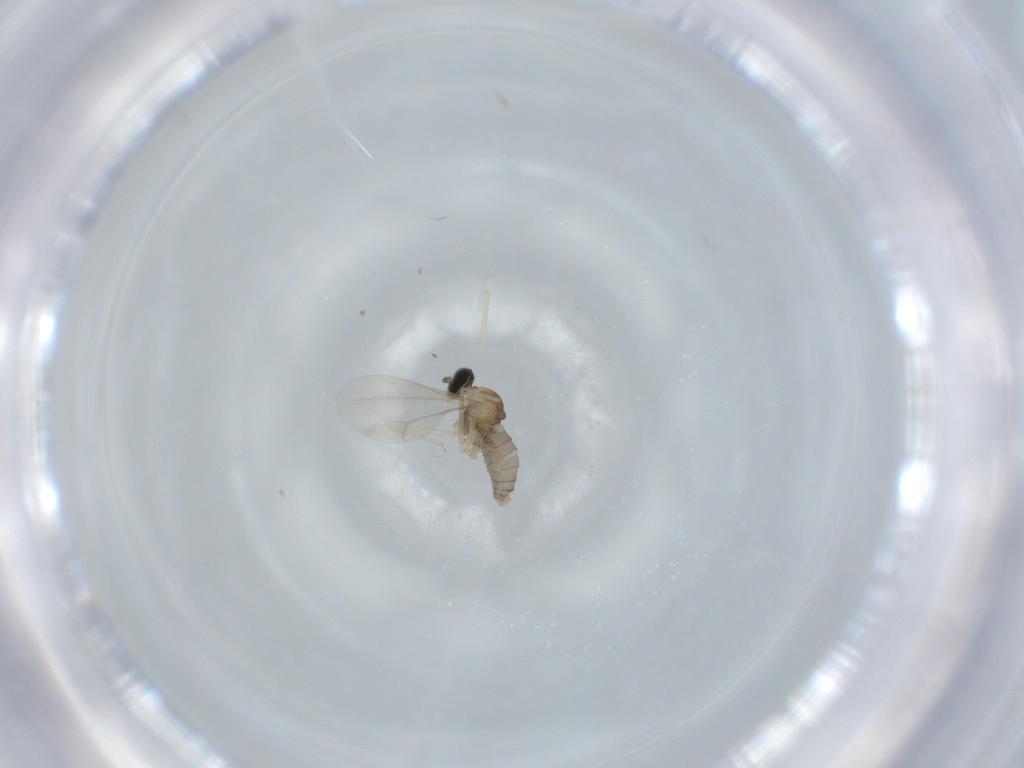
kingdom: Animalia
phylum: Arthropoda
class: Insecta
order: Diptera
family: Cecidomyiidae
